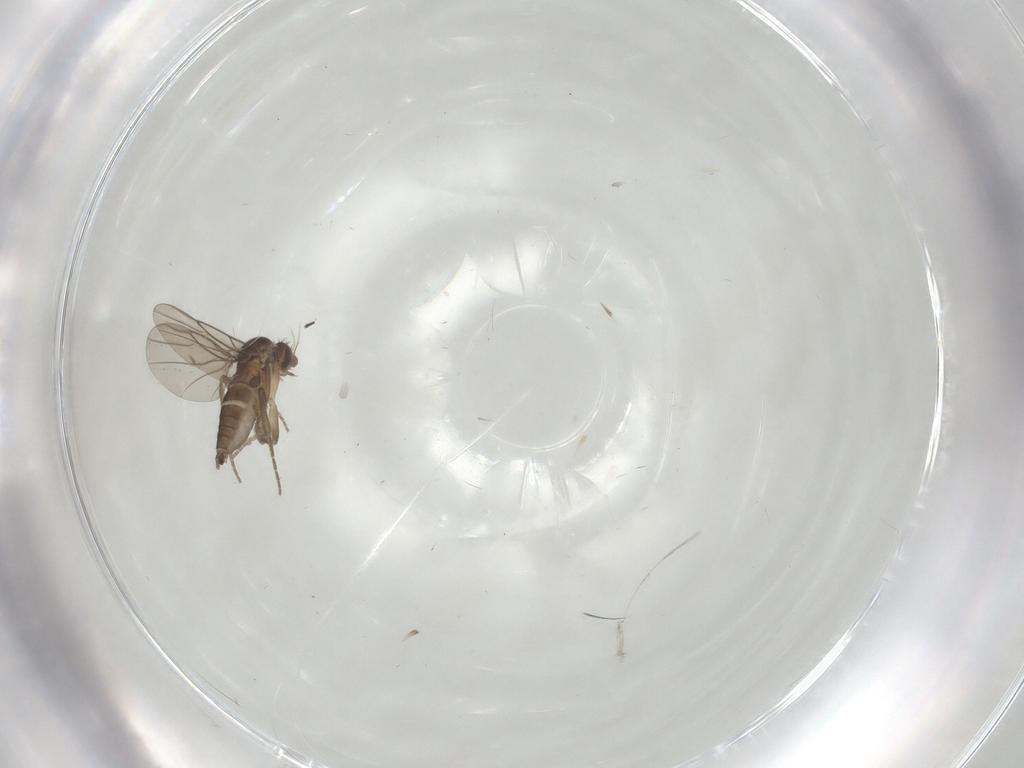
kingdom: Animalia
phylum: Arthropoda
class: Insecta
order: Diptera
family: Phoridae
